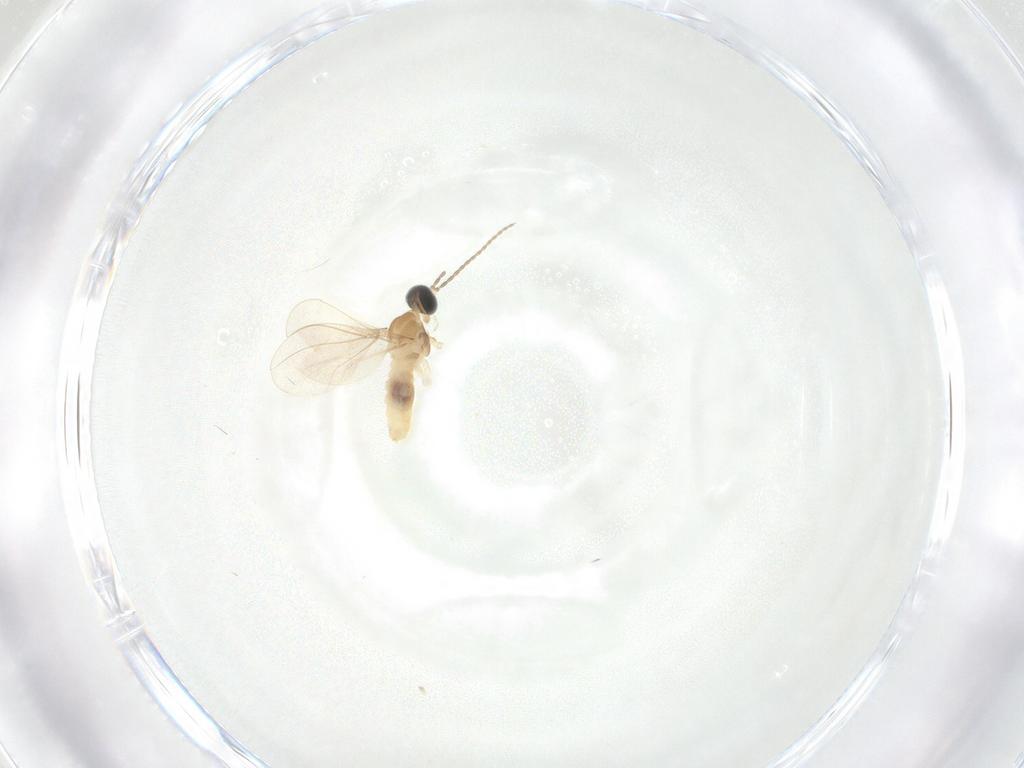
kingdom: Animalia
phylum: Arthropoda
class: Insecta
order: Diptera
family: Cecidomyiidae
